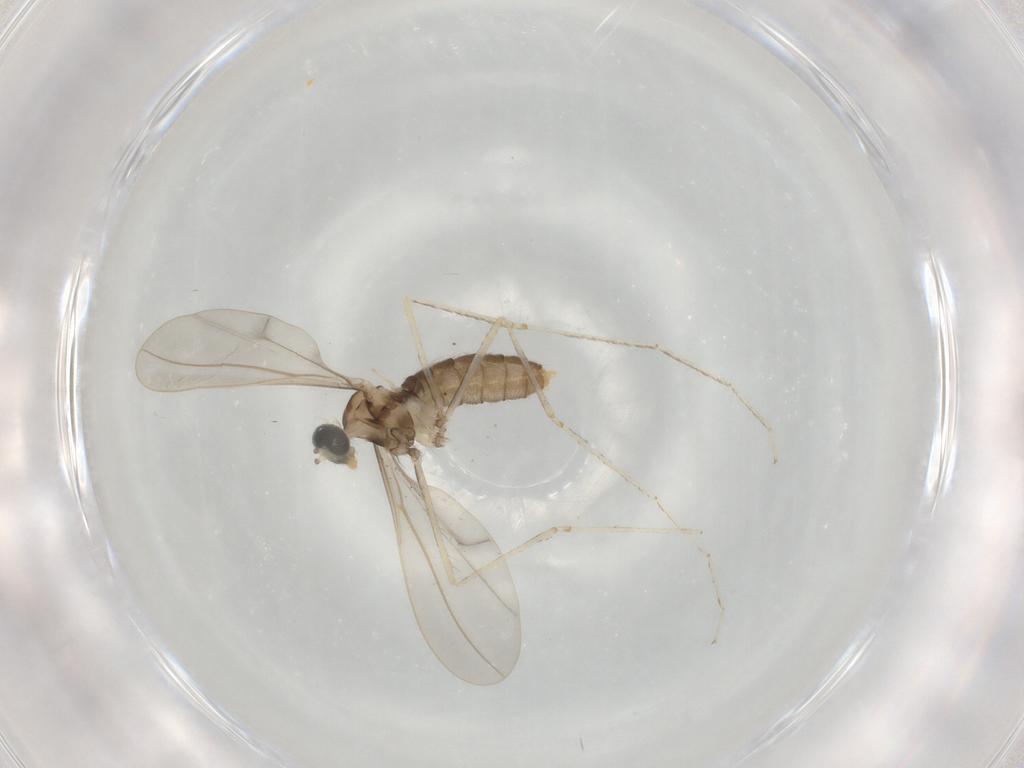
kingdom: Animalia
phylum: Arthropoda
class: Insecta
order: Diptera
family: Cecidomyiidae
